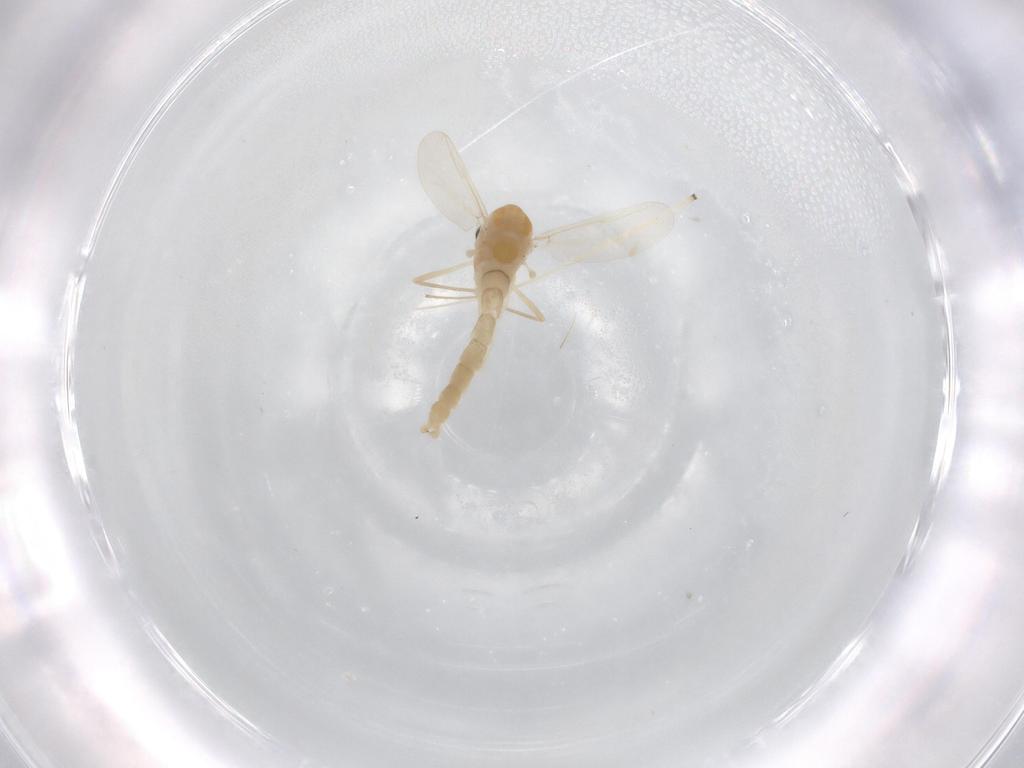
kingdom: Animalia
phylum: Arthropoda
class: Insecta
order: Diptera
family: Chironomidae
